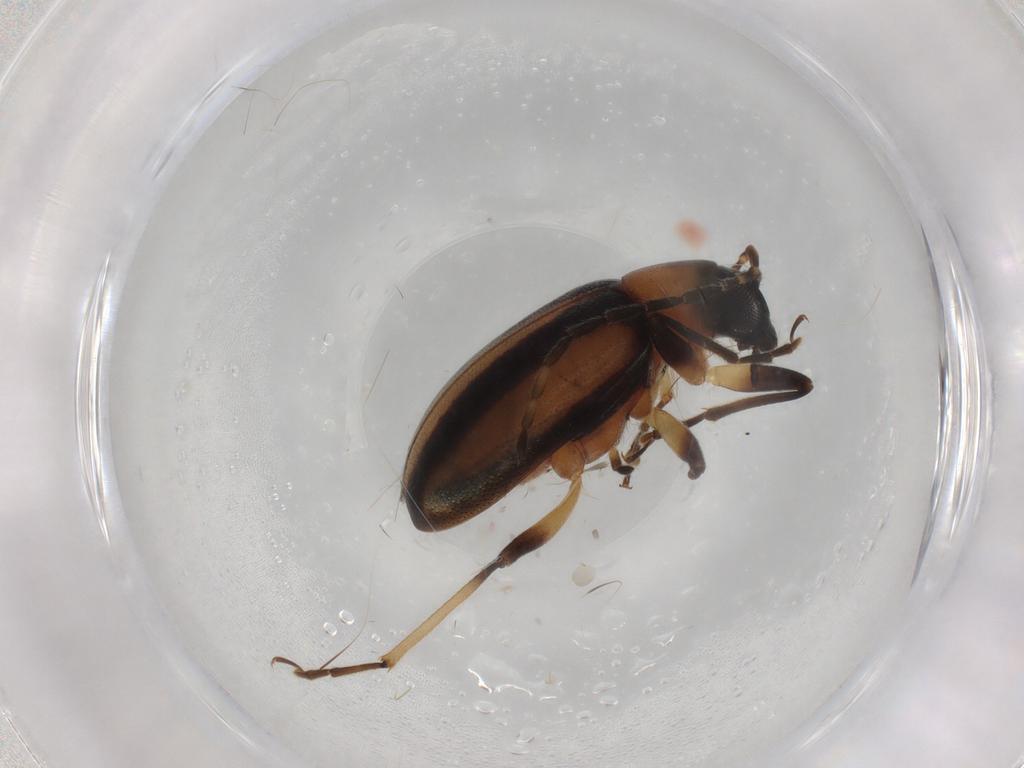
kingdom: Animalia
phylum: Arthropoda
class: Insecta
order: Coleoptera
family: Chrysomelidae
